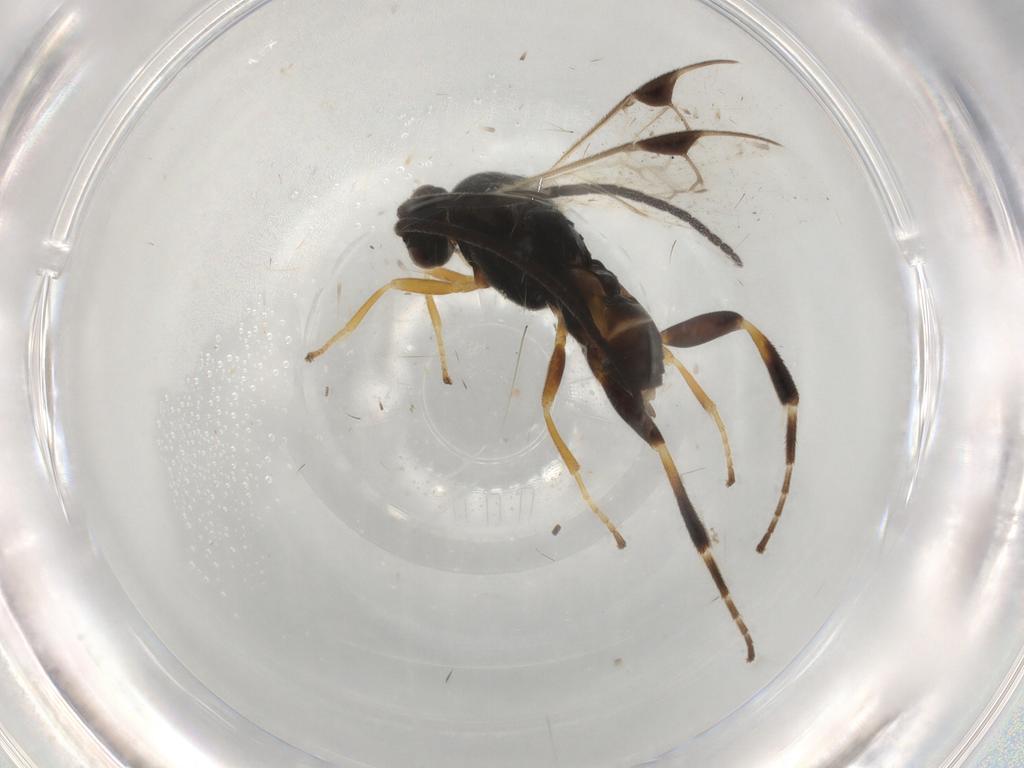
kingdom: Animalia
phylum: Arthropoda
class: Insecta
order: Hymenoptera
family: Braconidae
